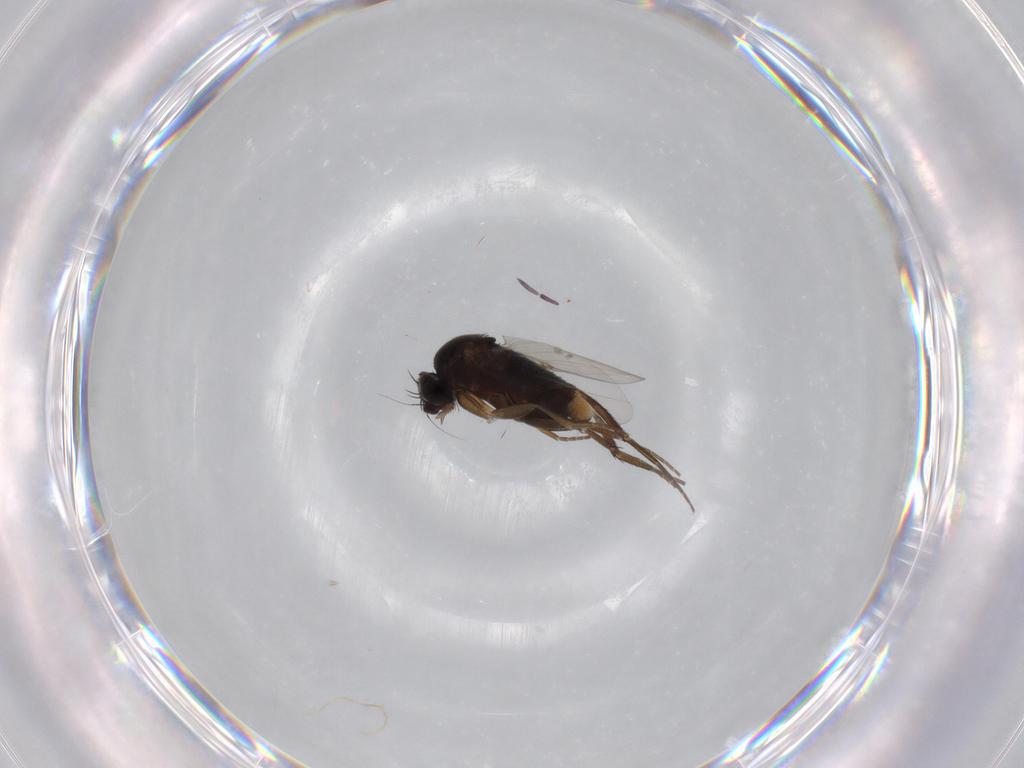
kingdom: Animalia
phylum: Arthropoda
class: Insecta
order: Diptera
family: Phoridae
